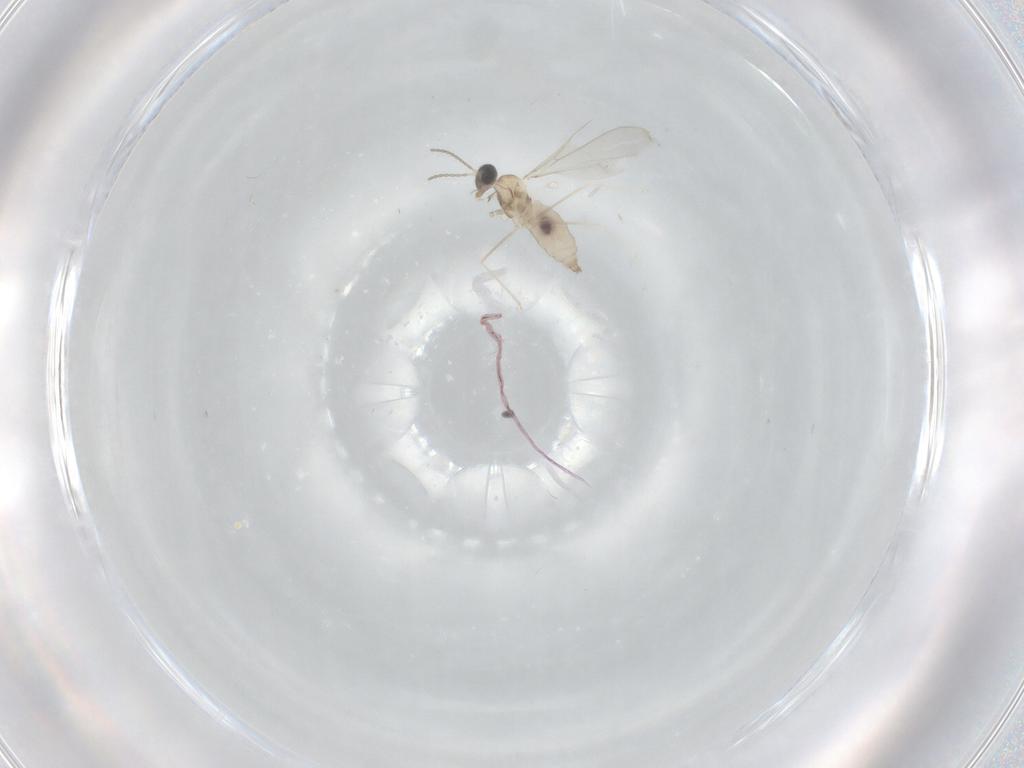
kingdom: Animalia
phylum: Arthropoda
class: Insecta
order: Diptera
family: Cecidomyiidae
